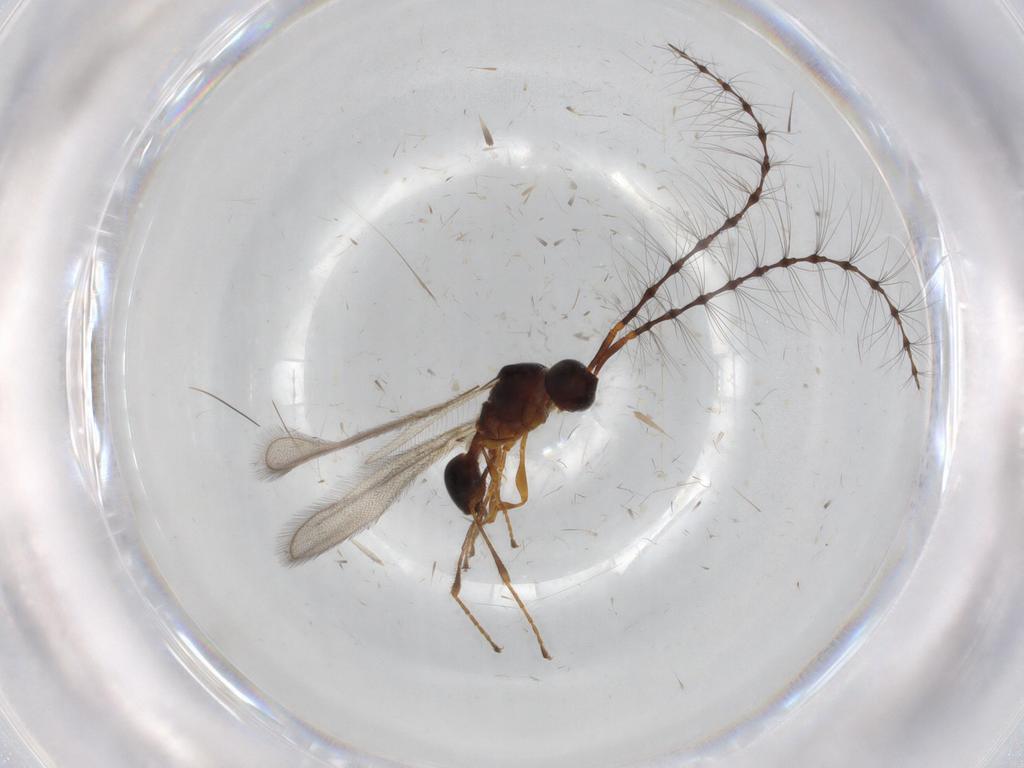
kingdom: Animalia
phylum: Arthropoda
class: Insecta
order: Hymenoptera
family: Diapriidae
